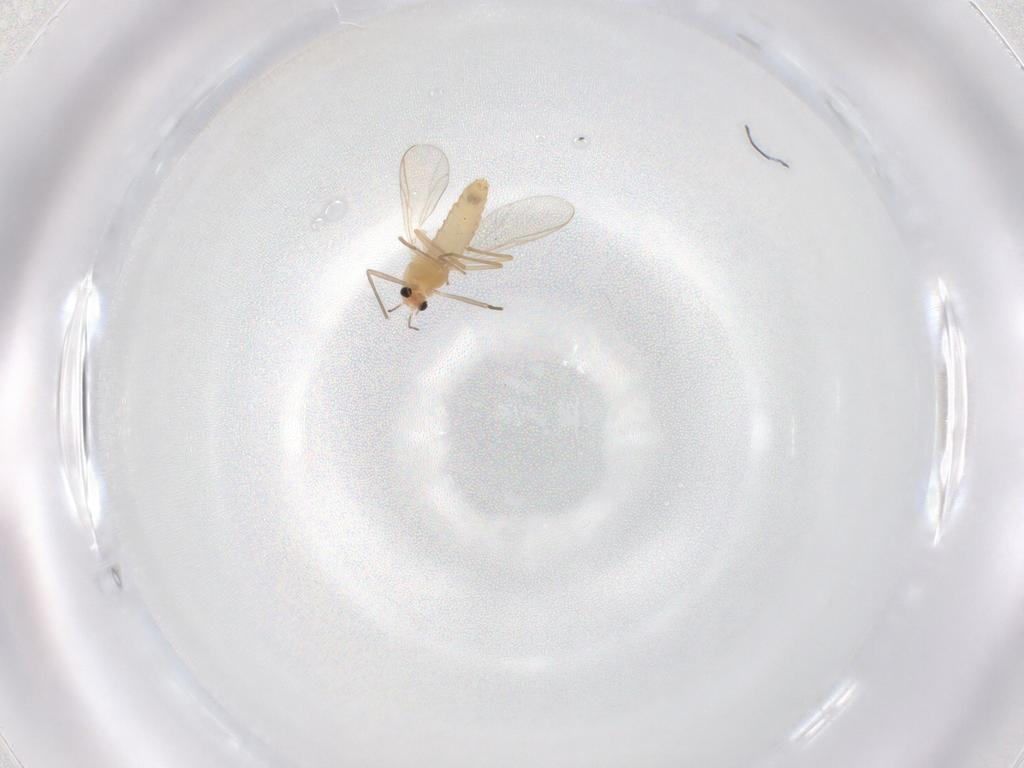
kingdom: Animalia
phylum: Arthropoda
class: Insecta
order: Diptera
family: Chironomidae
